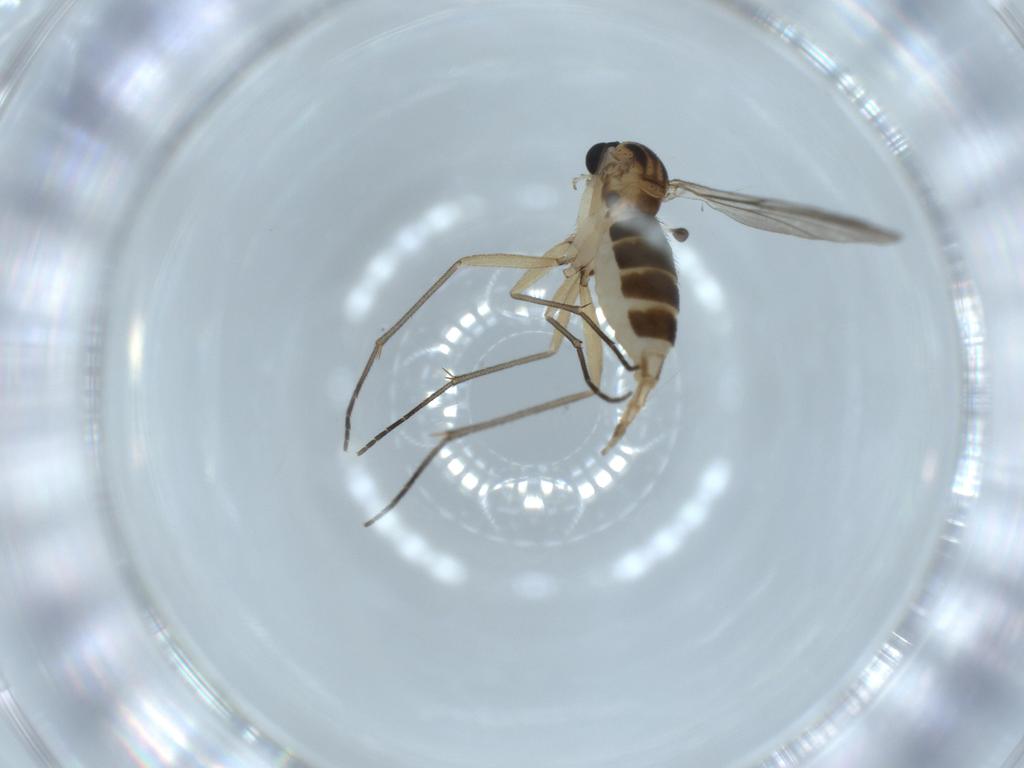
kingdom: Animalia
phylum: Arthropoda
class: Insecta
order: Diptera
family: Sciaridae
